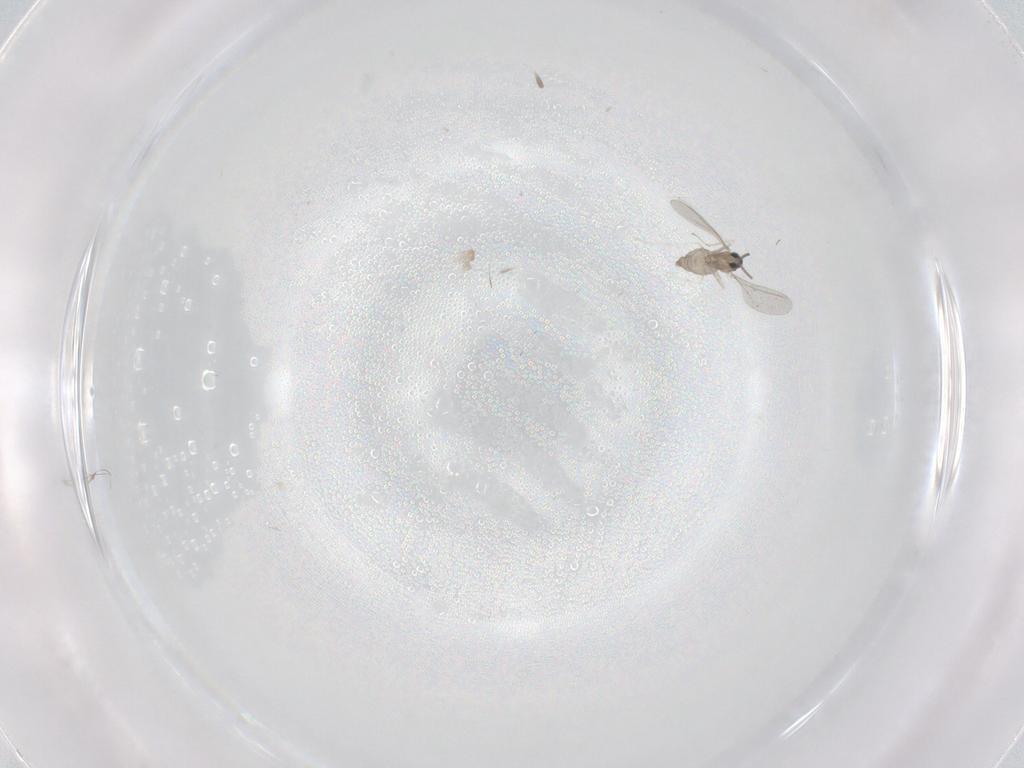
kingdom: Animalia
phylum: Arthropoda
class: Insecta
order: Diptera
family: Cecidomyiidae
